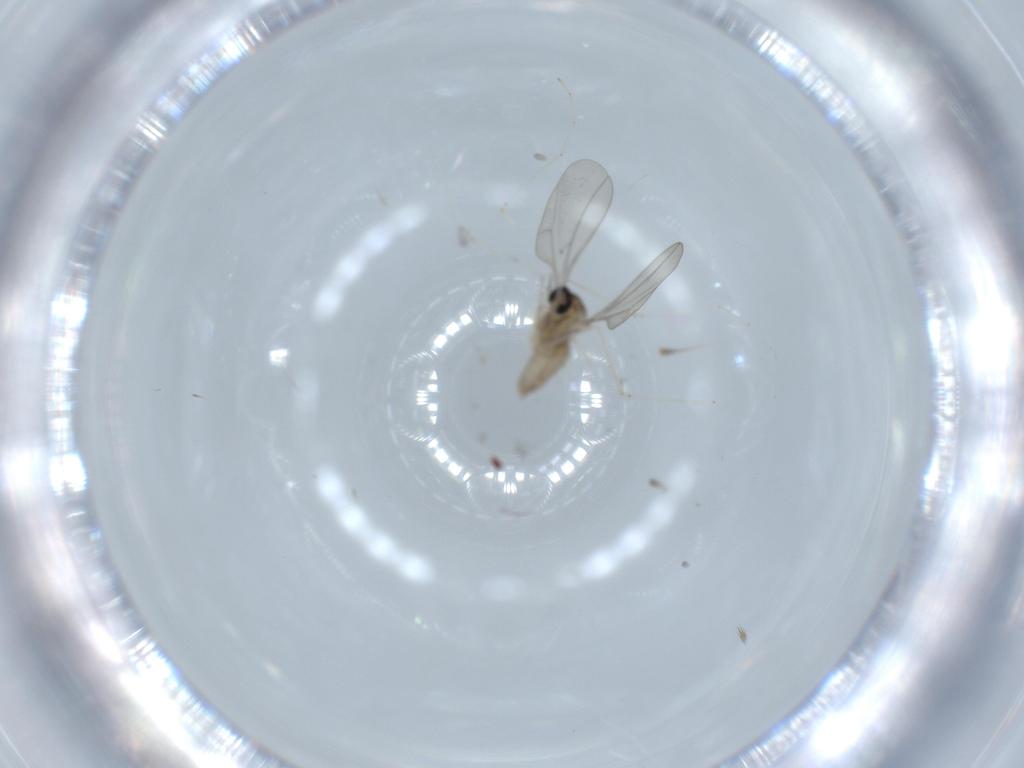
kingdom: Animalia
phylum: Arthropoda
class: Insecta
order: Diptera
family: Cecidomyiidae
